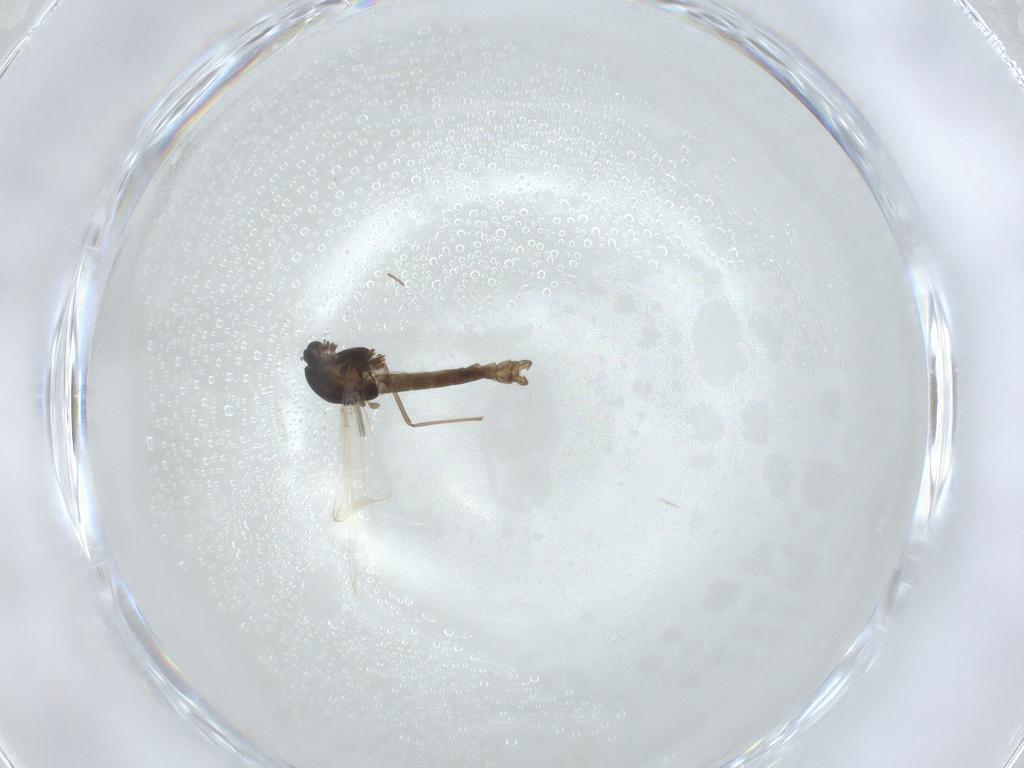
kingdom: Animalia
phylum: Arthropoda
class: Insecta
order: Diptera
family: Chironomidae
